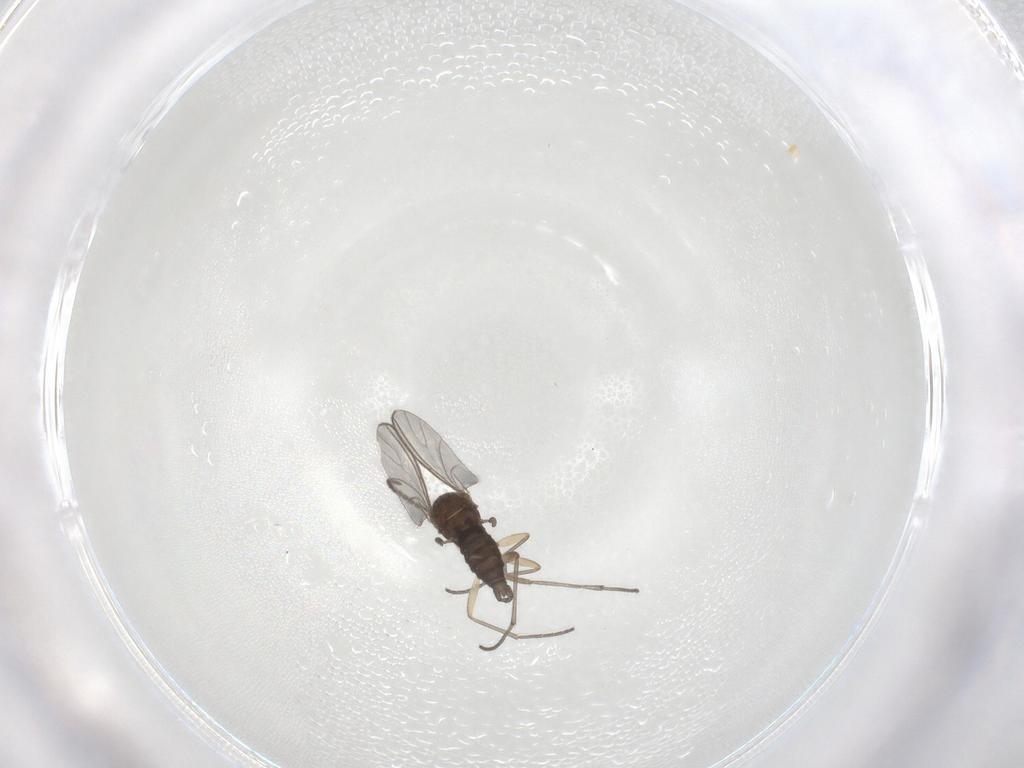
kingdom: Animalia
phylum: Arthropoda
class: Insecta
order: Diptera
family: Sciaridae
